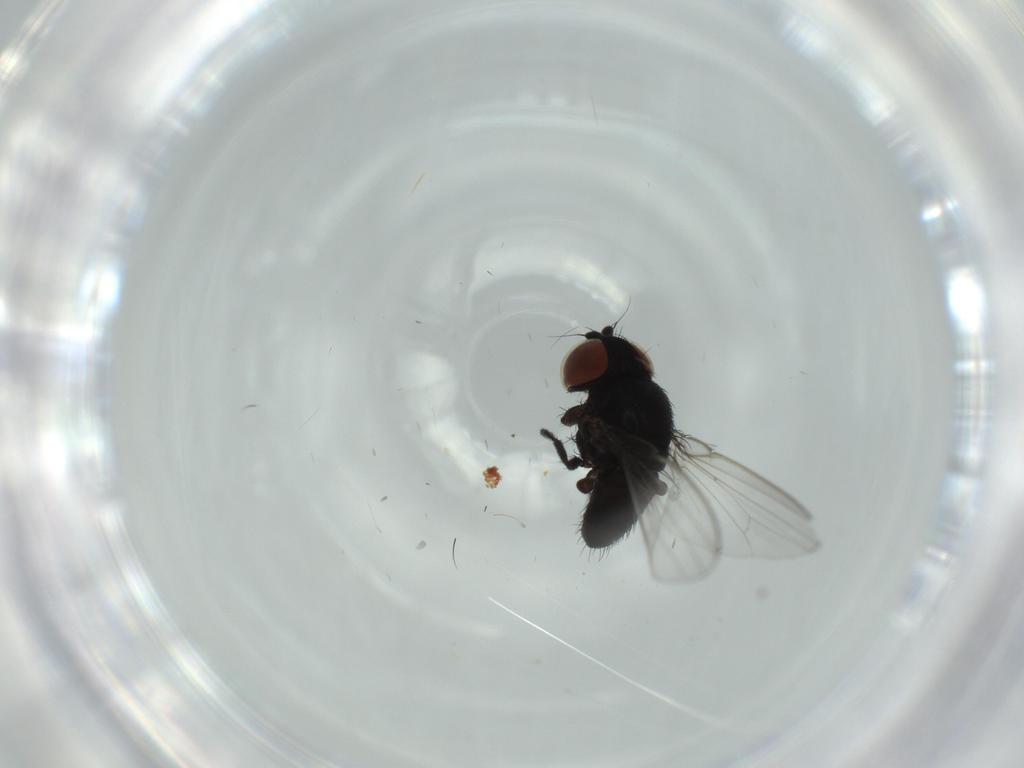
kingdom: Animalia
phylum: Arthropoda
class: Insecta
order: Diptera
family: Milichiidae
